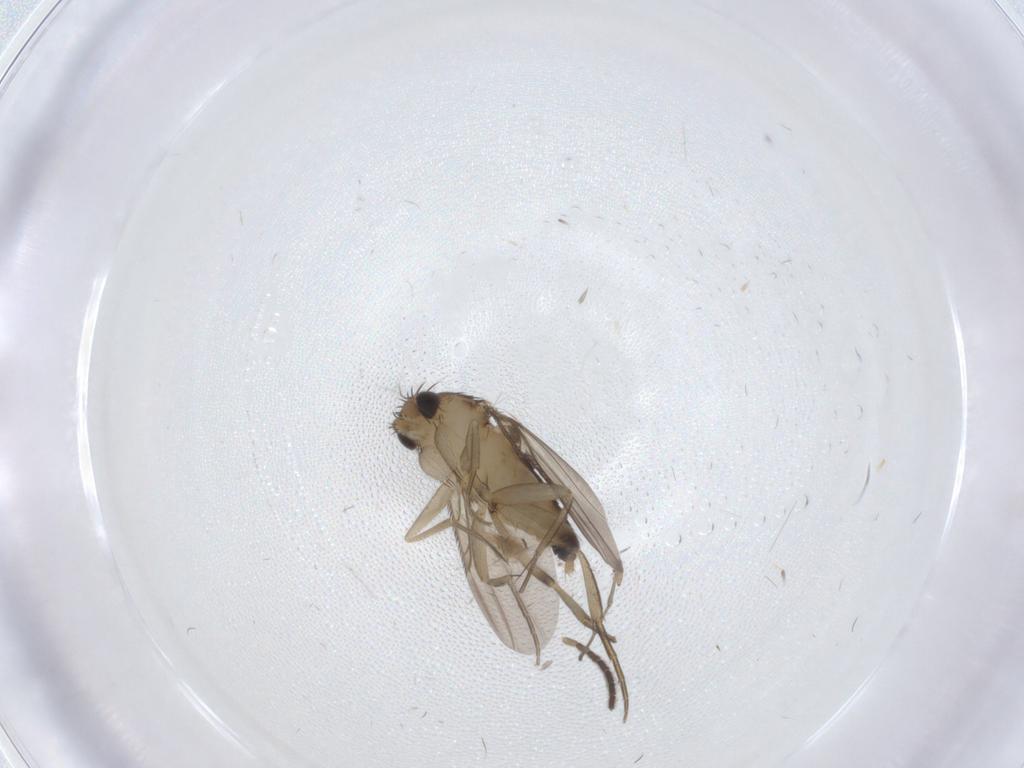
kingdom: Animalia
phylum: Arthropoda
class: Insecta
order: Diptera
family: Phoridae
